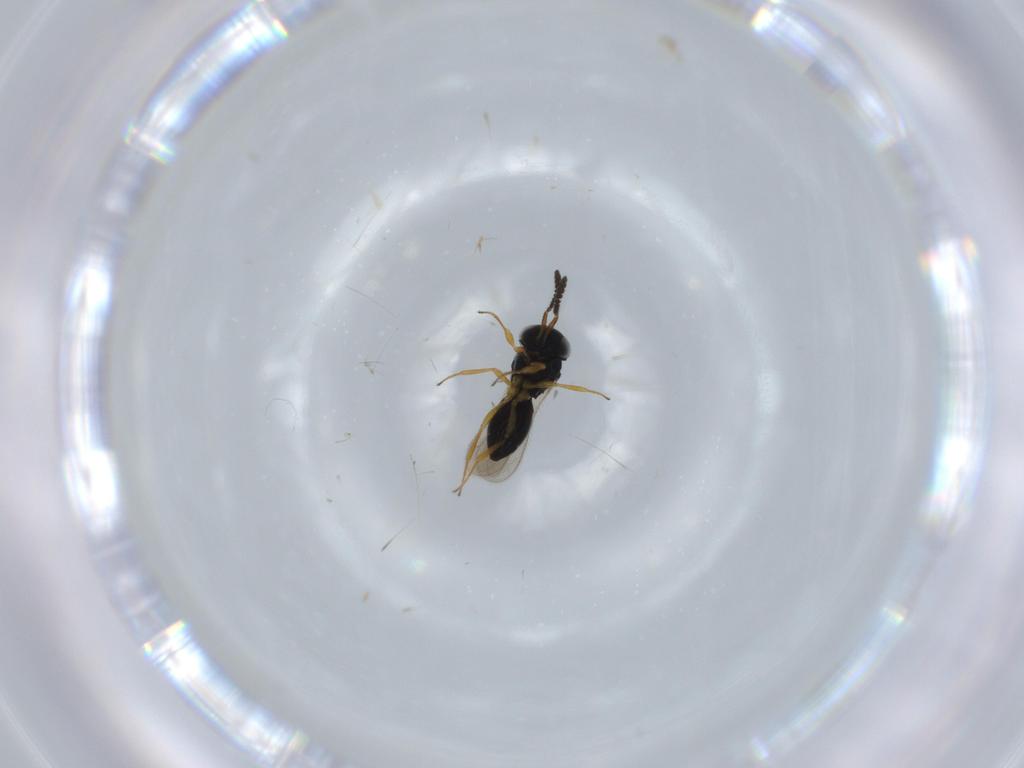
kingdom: Animalia
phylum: Arthropoda
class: Insecta
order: Hymenoptera
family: Scelionidae
